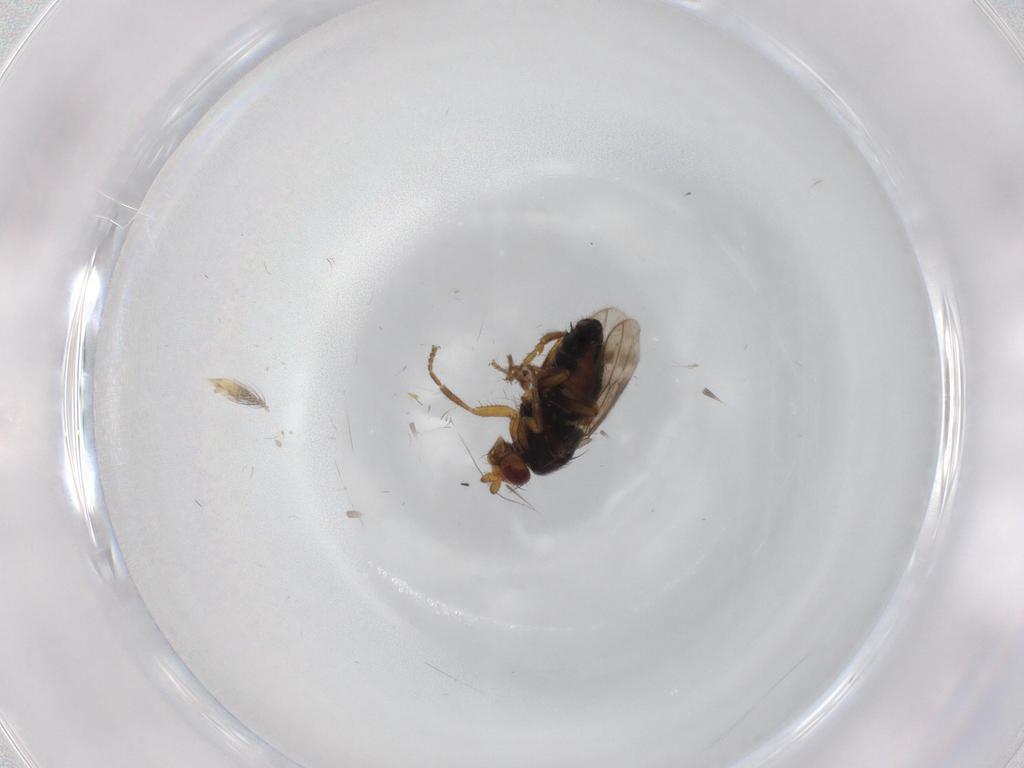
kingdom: Animalia
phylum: Arthropoda
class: Insecta
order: Diptera
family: Sphaeroceridae
